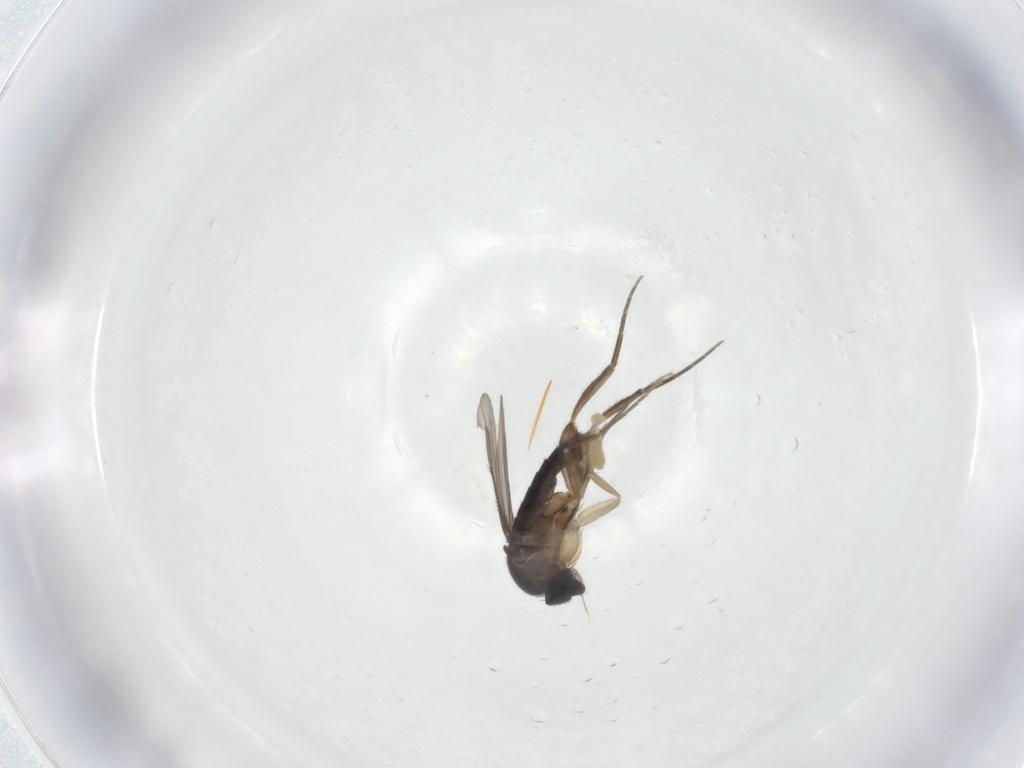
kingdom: Animalia
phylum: Arthropoda
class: Insecta
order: Diptera
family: Phoridae
